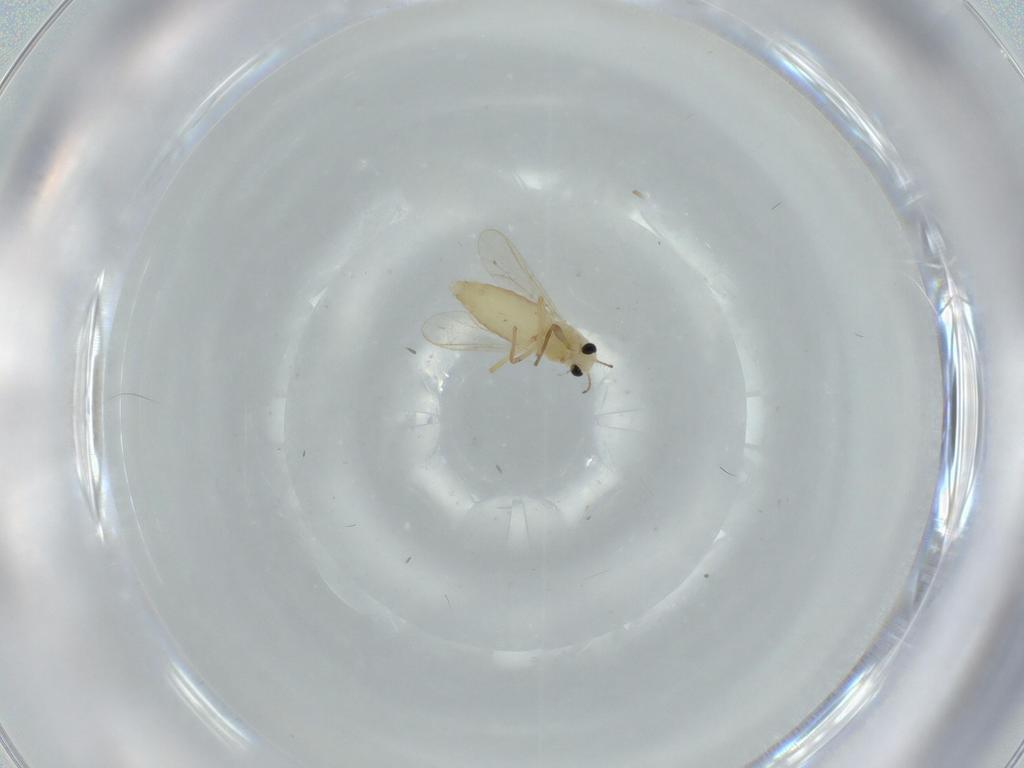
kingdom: Animalia
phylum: Arthropoda
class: Insecta
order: Diptera
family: Chironomidae
